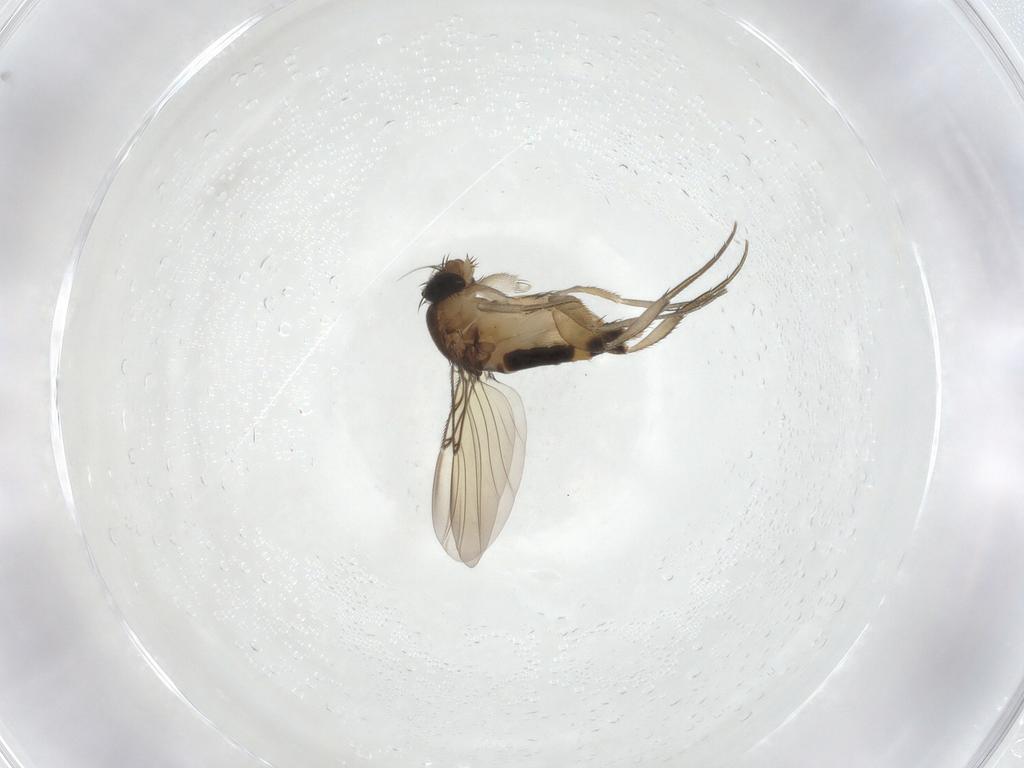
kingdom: Animalia
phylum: Arthropoda
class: Insecta
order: Diptera
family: Phoridae
